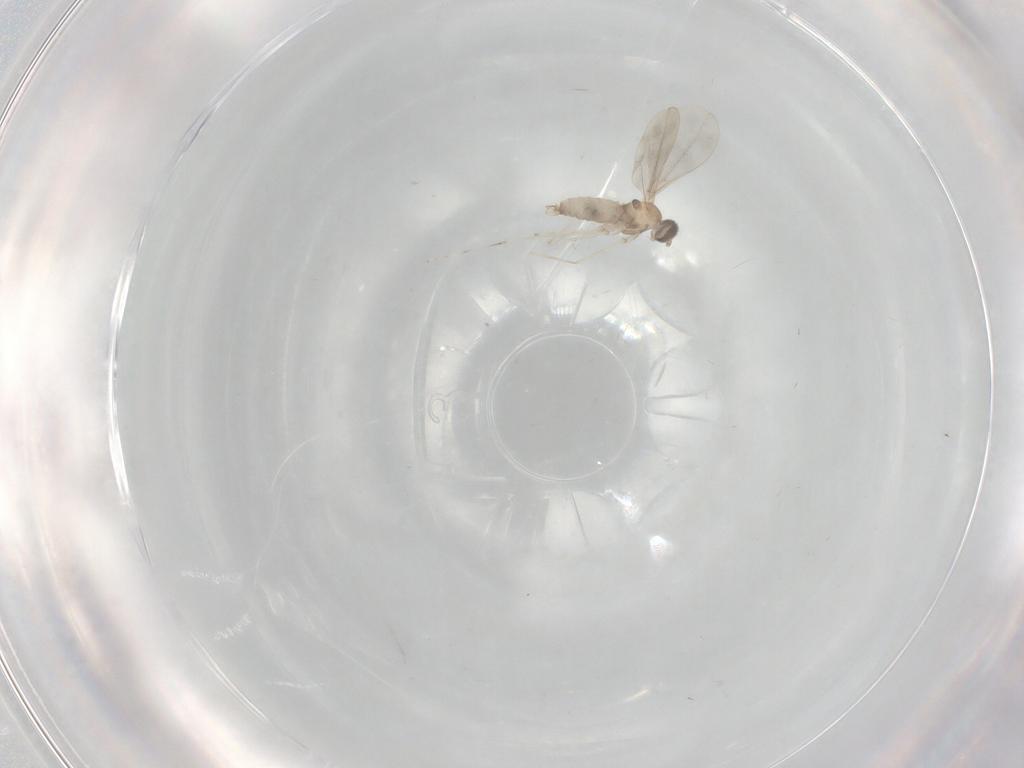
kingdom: Animalia
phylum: Arthropoda
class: Insecta
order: Diptera
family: Cecidomyiidae
